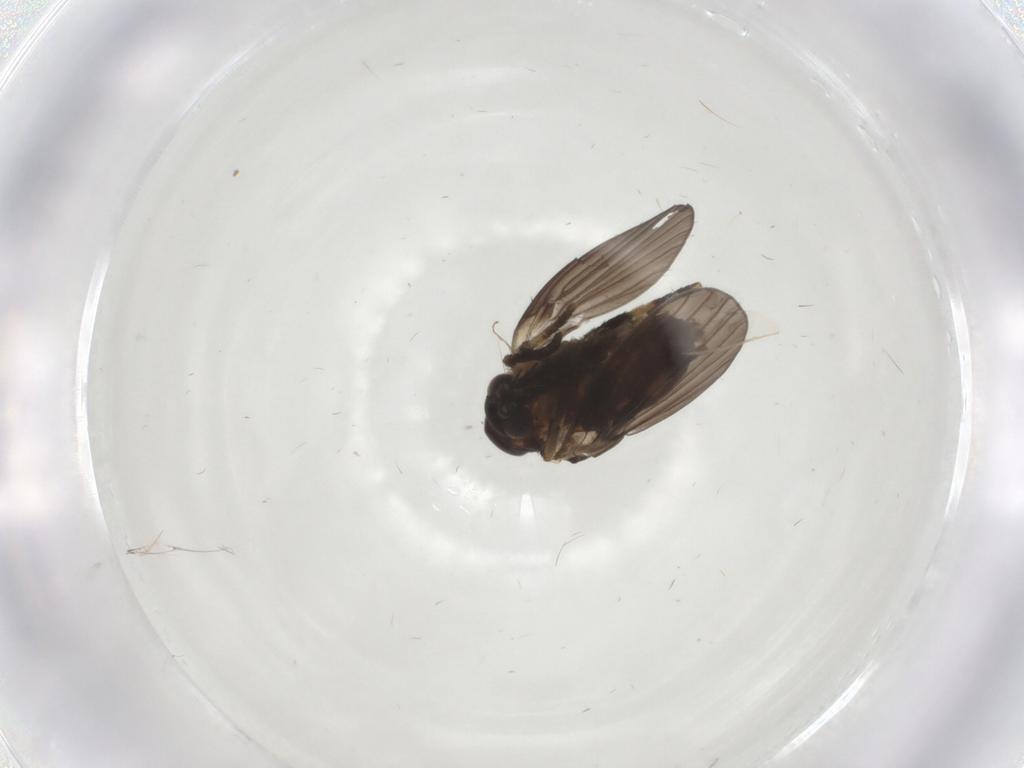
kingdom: Animalia
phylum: Arthropoda
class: Insecta
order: Diptera
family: Cecidomyiidae
